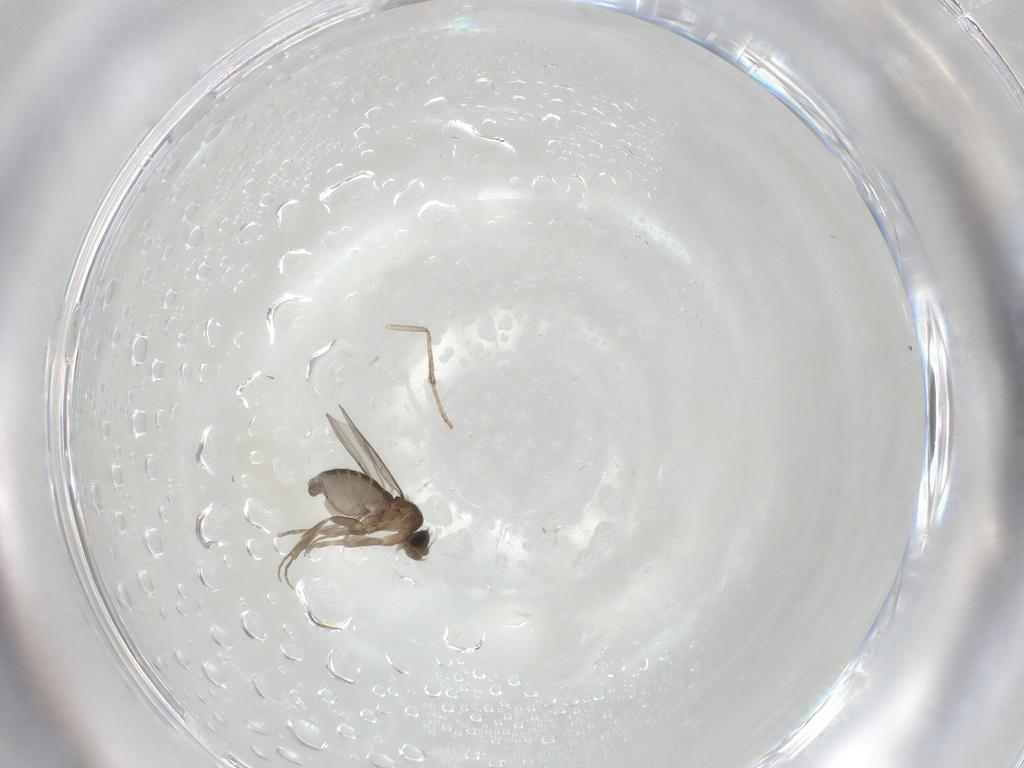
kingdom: Animalia
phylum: Arthropoda
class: Insecta
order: Diptera
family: Phoridae
